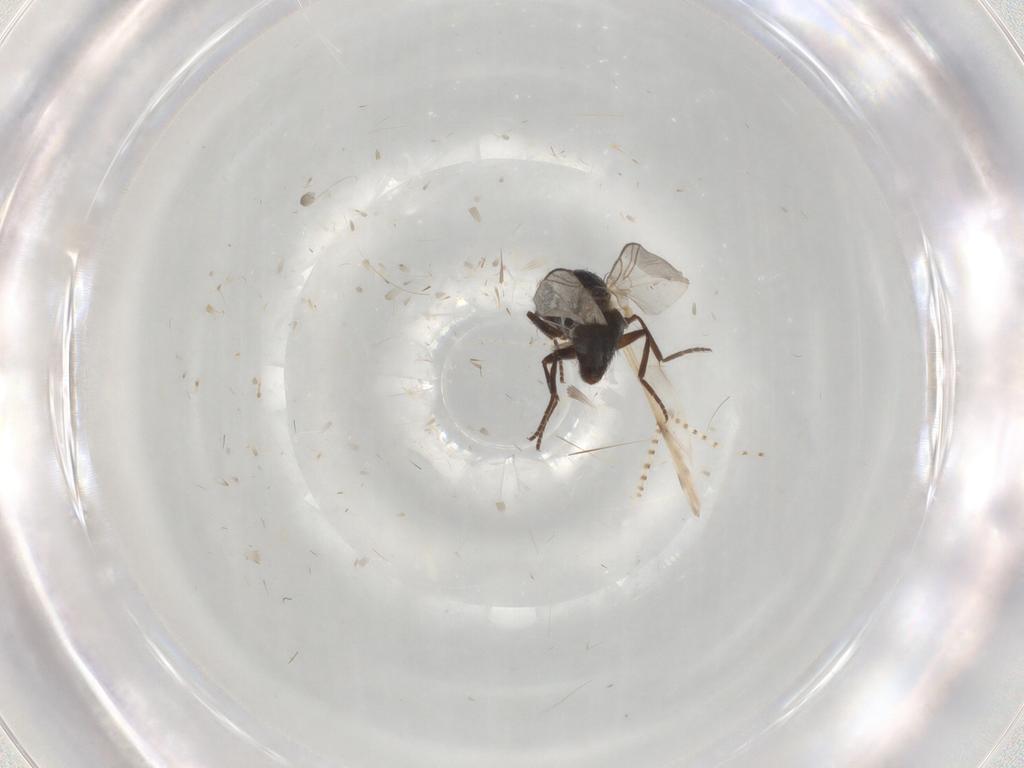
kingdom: Animalia
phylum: Arthropoda
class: Insecta
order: Diptera
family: Chironomidae
